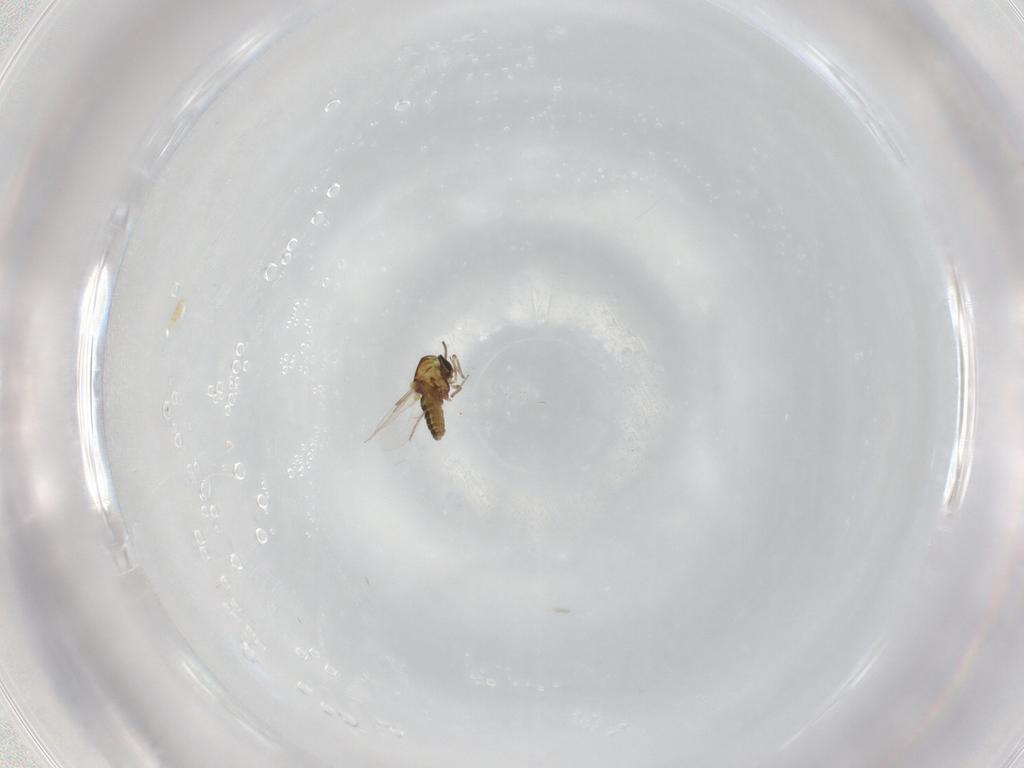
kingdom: Animalia
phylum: Arthropoda
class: Insecta
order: Diptera
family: Ceratopogonidae
